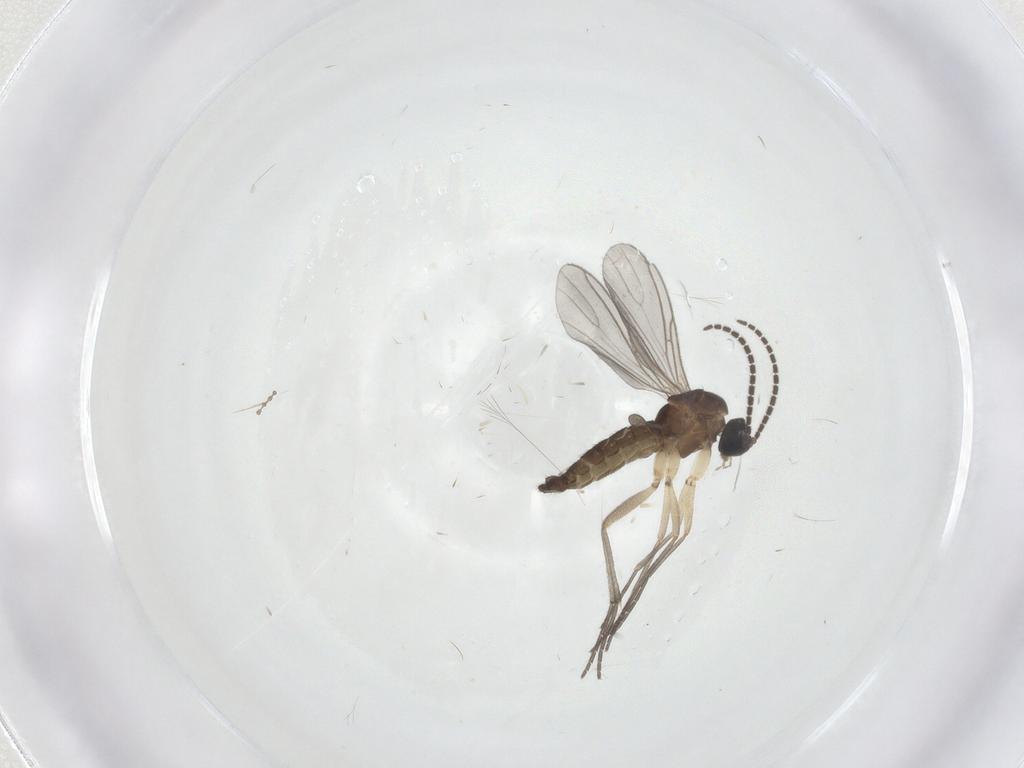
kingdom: Animalia
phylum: Arthropoda
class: Insecta
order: Diptera
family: Sciaridae
